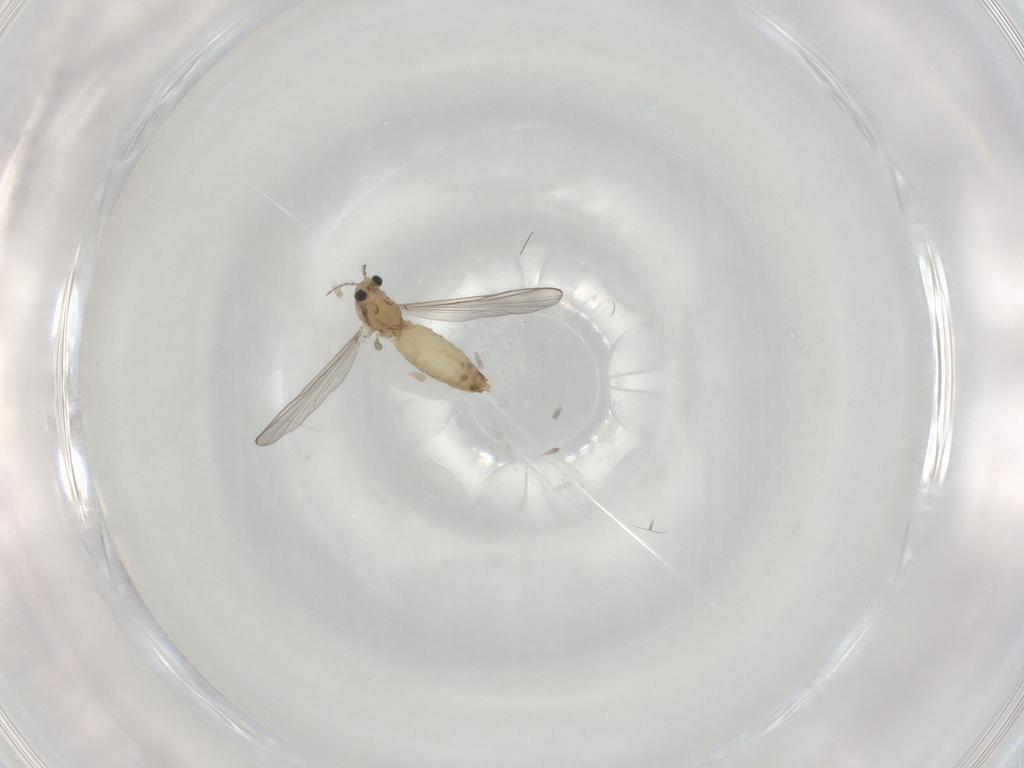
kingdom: Animalia
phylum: Arthropoda
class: Insecta
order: Diptera
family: Chironomidae
